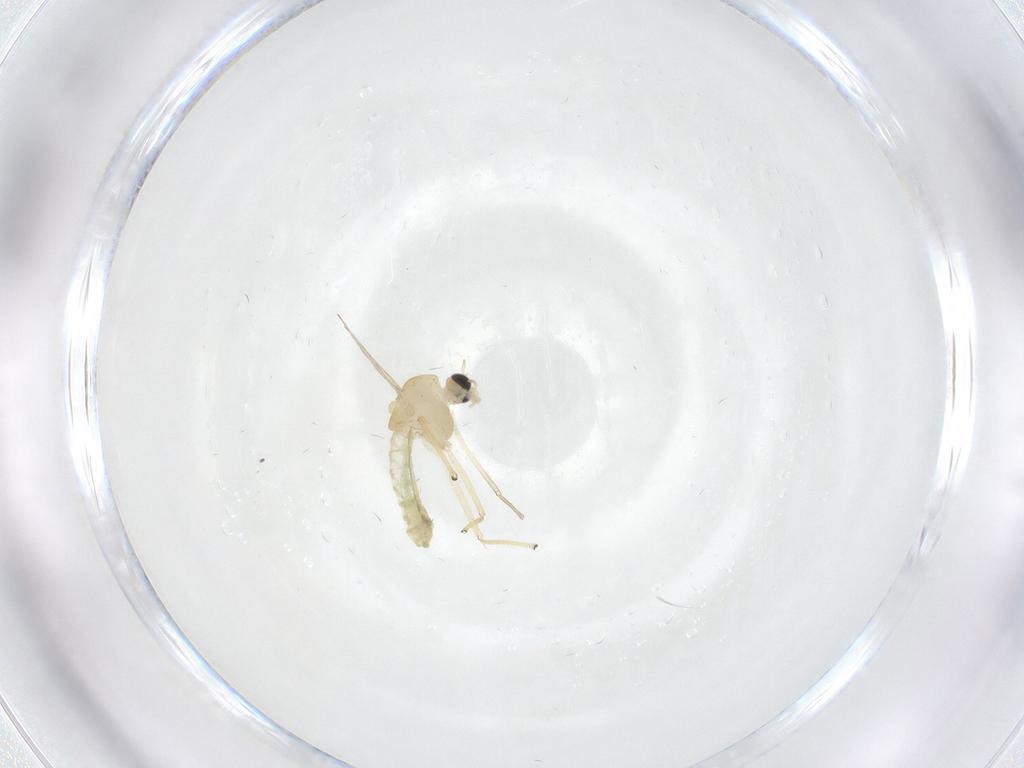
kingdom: Animalia
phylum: Arthropoda
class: Insecta
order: Diptera
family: Chironomidae
